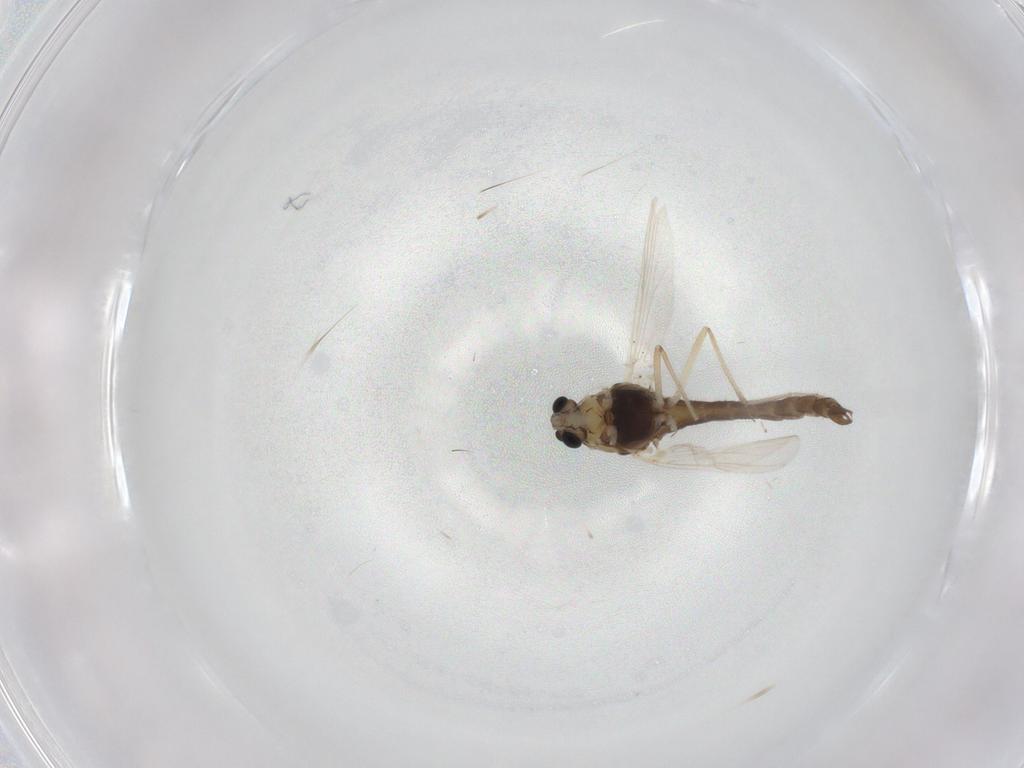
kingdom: Animalia
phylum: Arthropoda
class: Insecta
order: Diptera
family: Chironomidae
